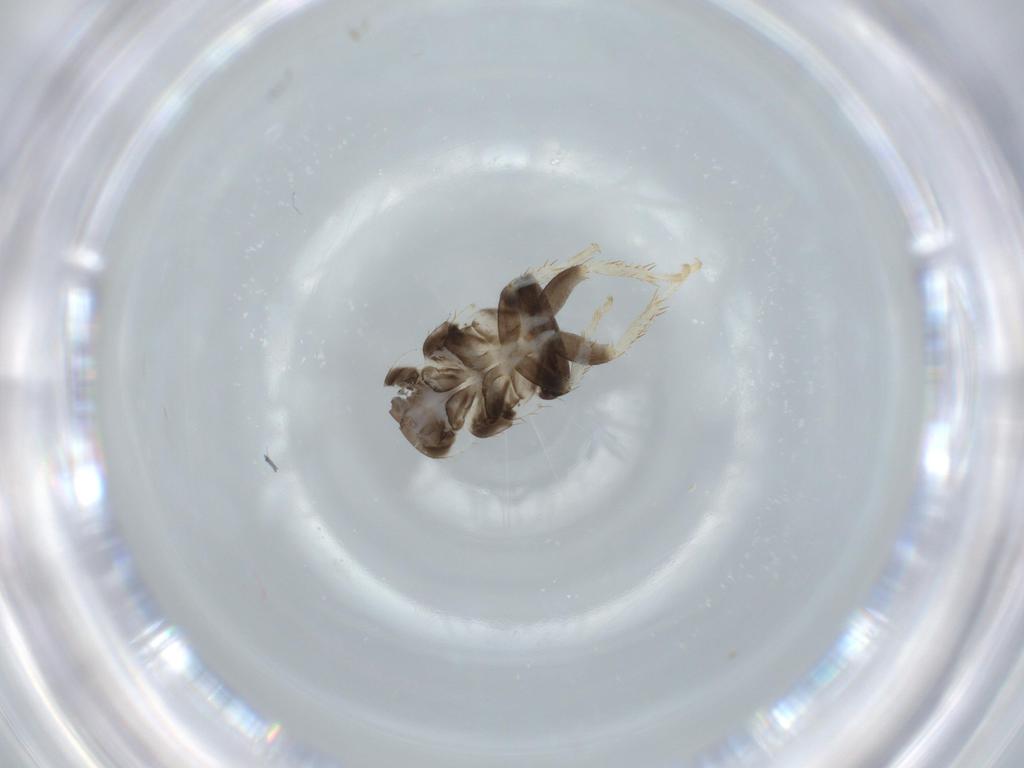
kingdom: Animalia
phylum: Arthropoda
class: Insecta
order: Blattodea
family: Ectobiidae
